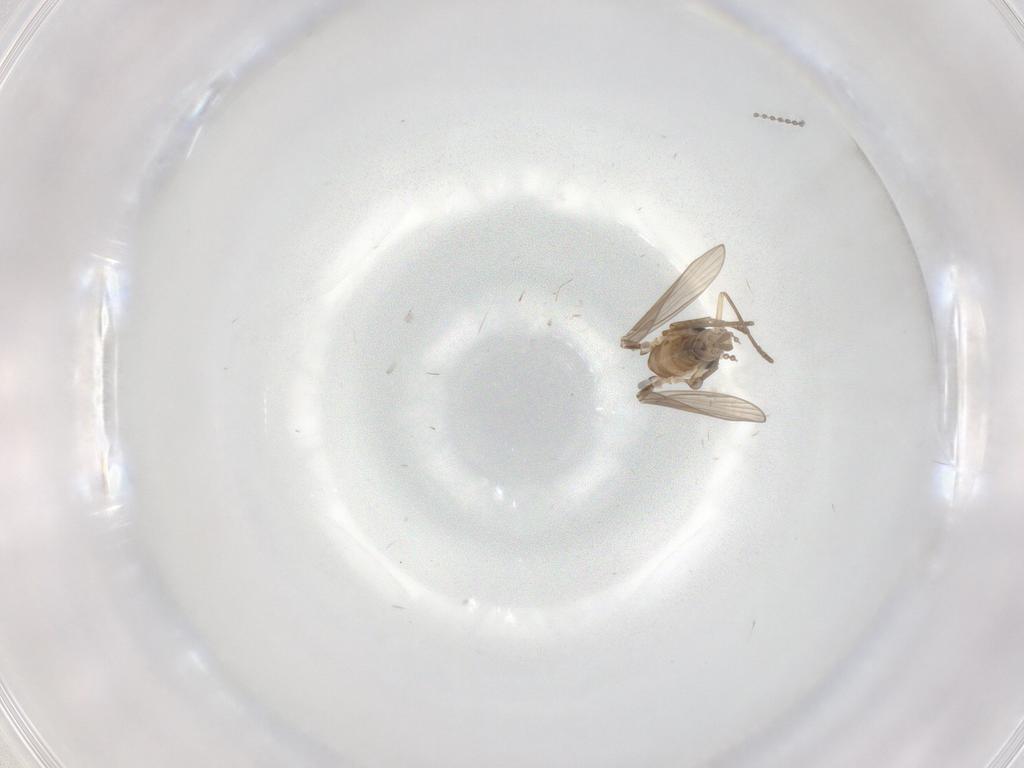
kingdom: Animalia
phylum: Arthropoda
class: Insecta
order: Diptera
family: Psychodidae
